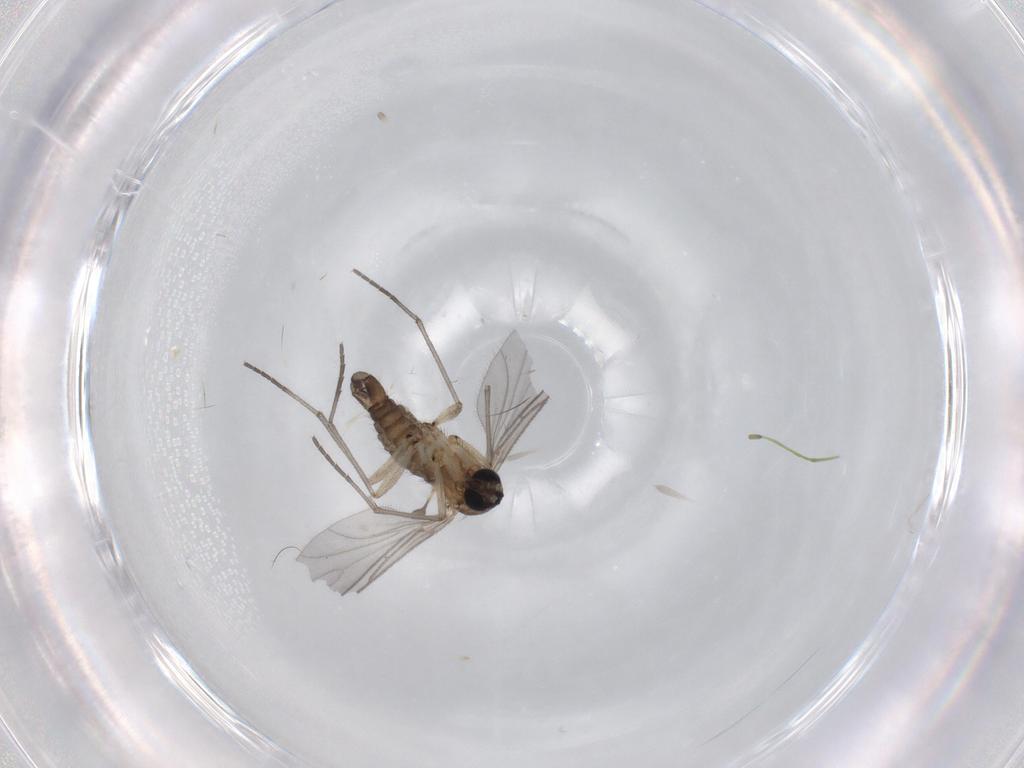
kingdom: Animalia
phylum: Arthropoda
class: Insecta
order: Diptera
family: Sciaridae
